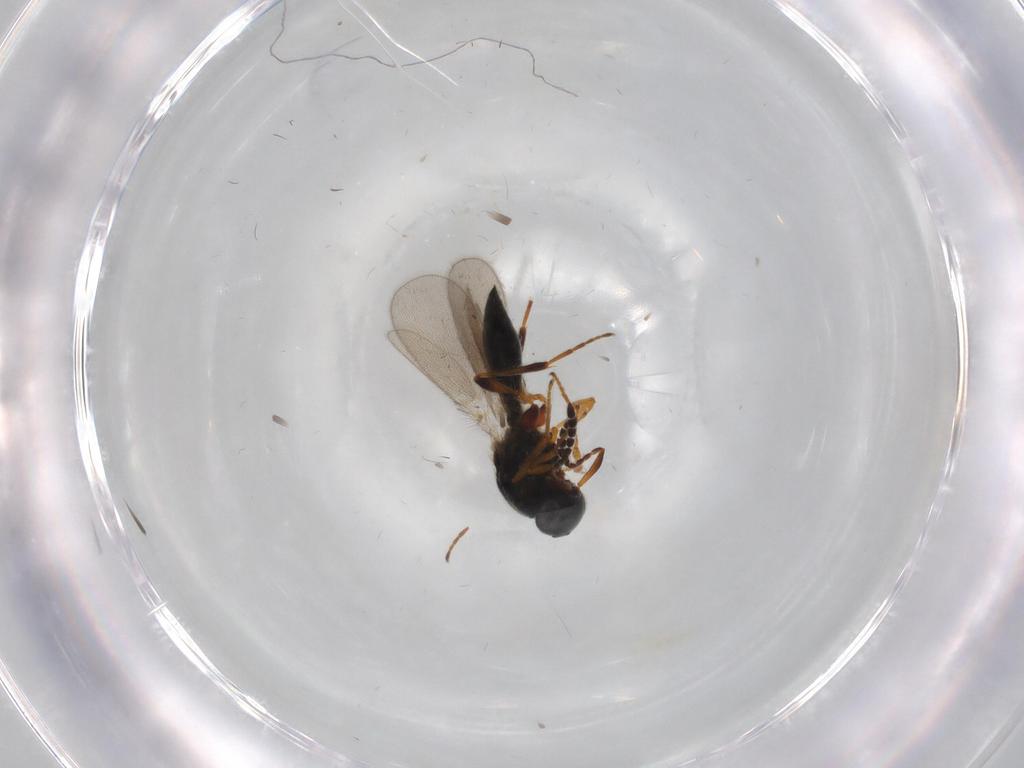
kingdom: Animalia
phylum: Arthropoda
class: Insecta
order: Hymenoptera
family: Platygastridae
